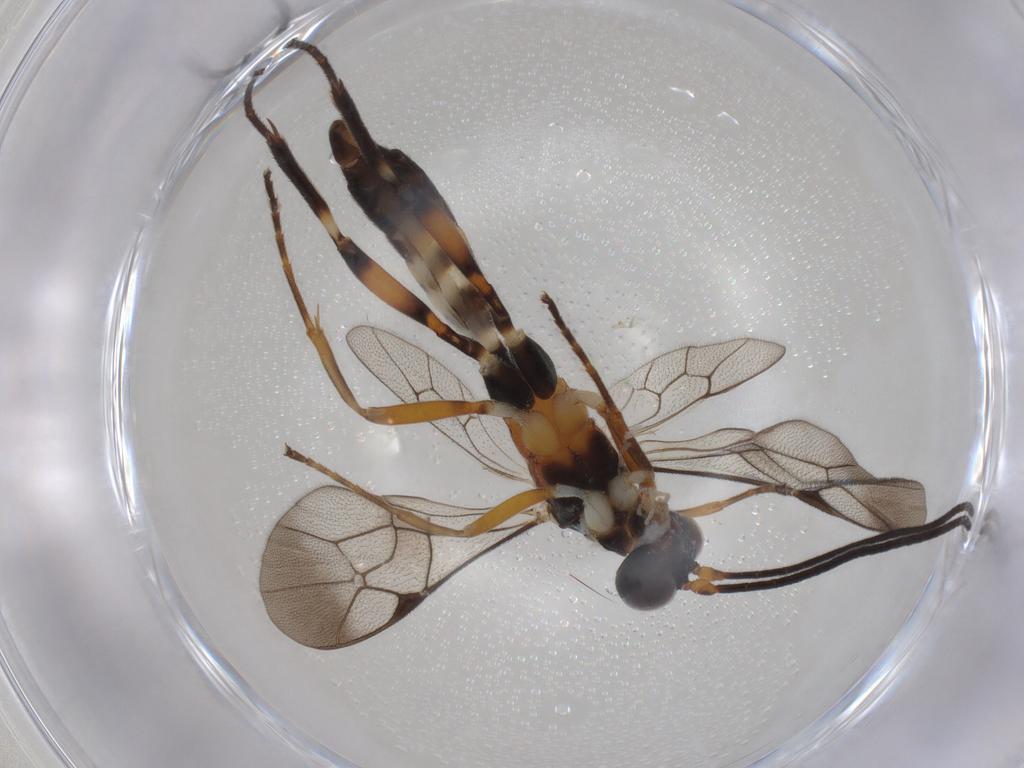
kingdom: Animalia
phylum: Arthropoda
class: Insecta
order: Hymenoptera
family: Ichneumonidae
